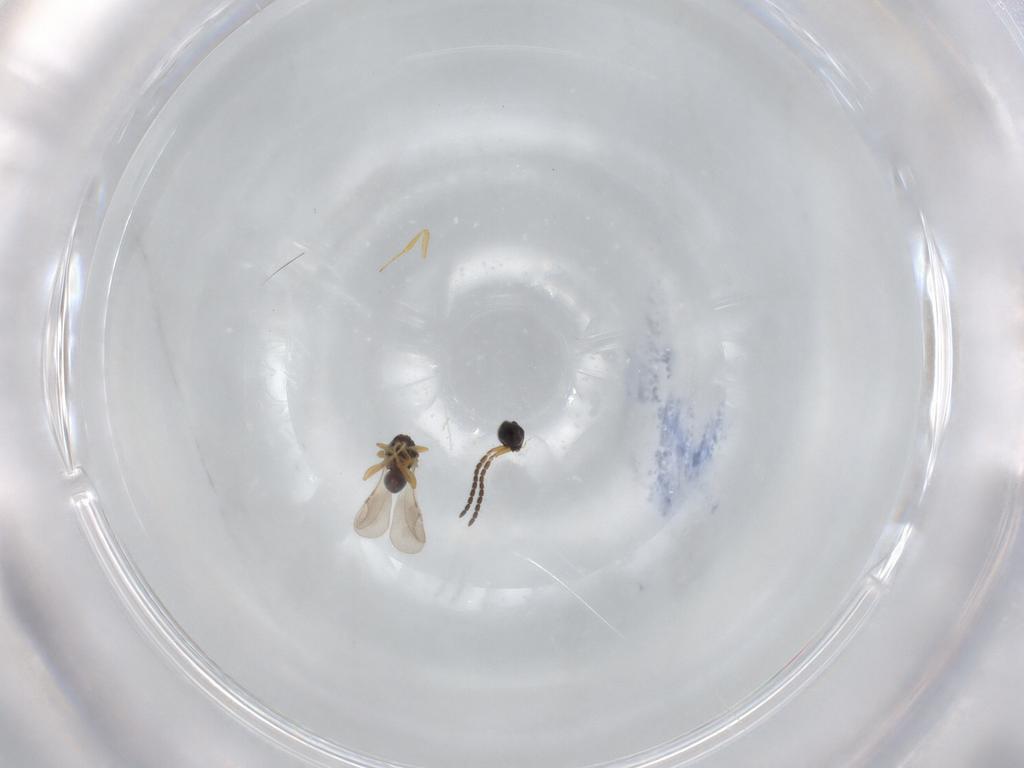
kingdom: Animalia
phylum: Arthropoda
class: Insecta
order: Hymenoptera
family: Scelionidae
